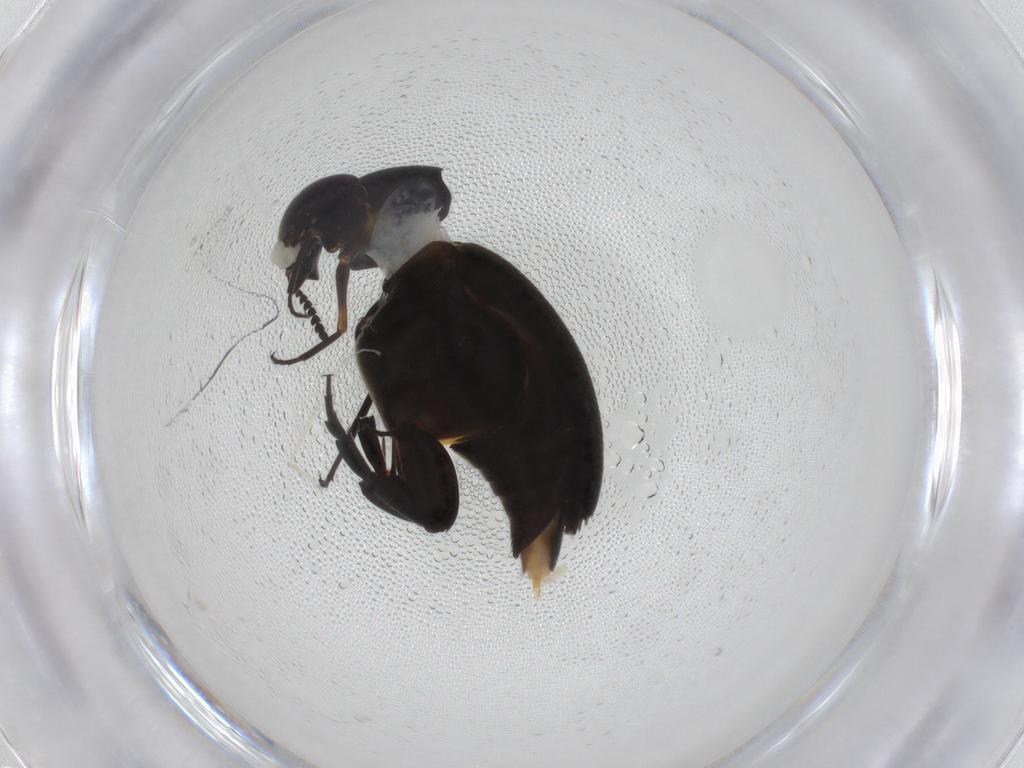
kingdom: Animalia
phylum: Arthropoda
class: Insecta
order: Coleoptera
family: Mordellidae
